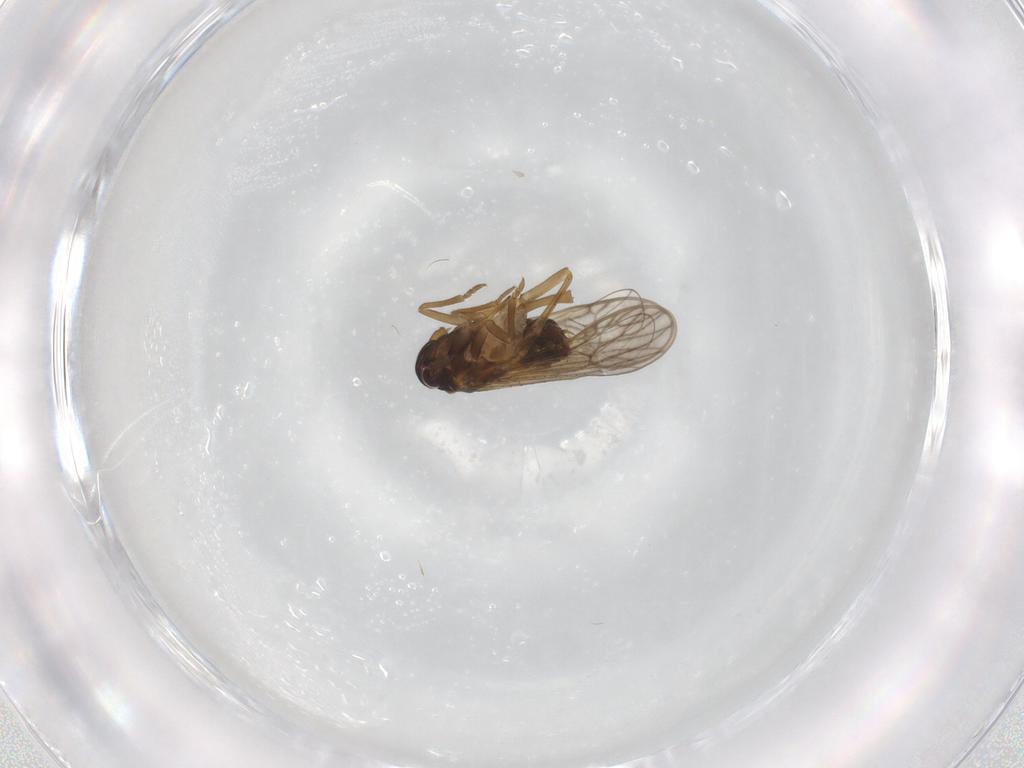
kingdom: Animalia
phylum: Arthropoda
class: Insecta
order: Hemiptera
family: Delphacidae
